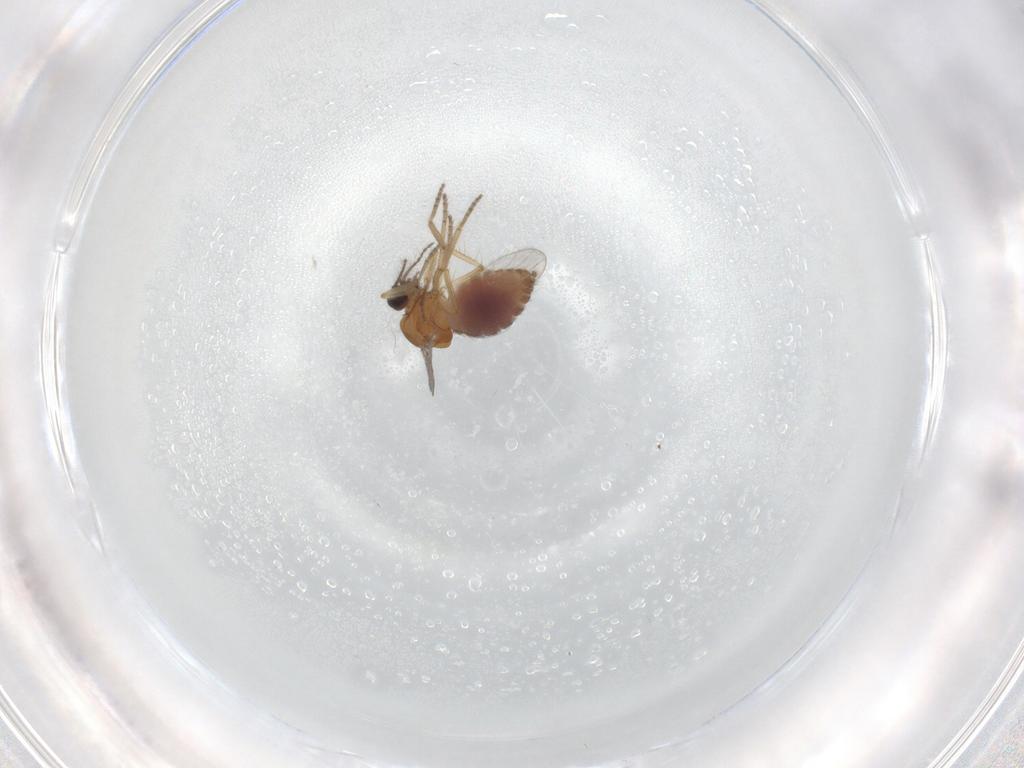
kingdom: Animalia
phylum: Arthropoda
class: Insecta
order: Diptera
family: Ceratopogonidae
